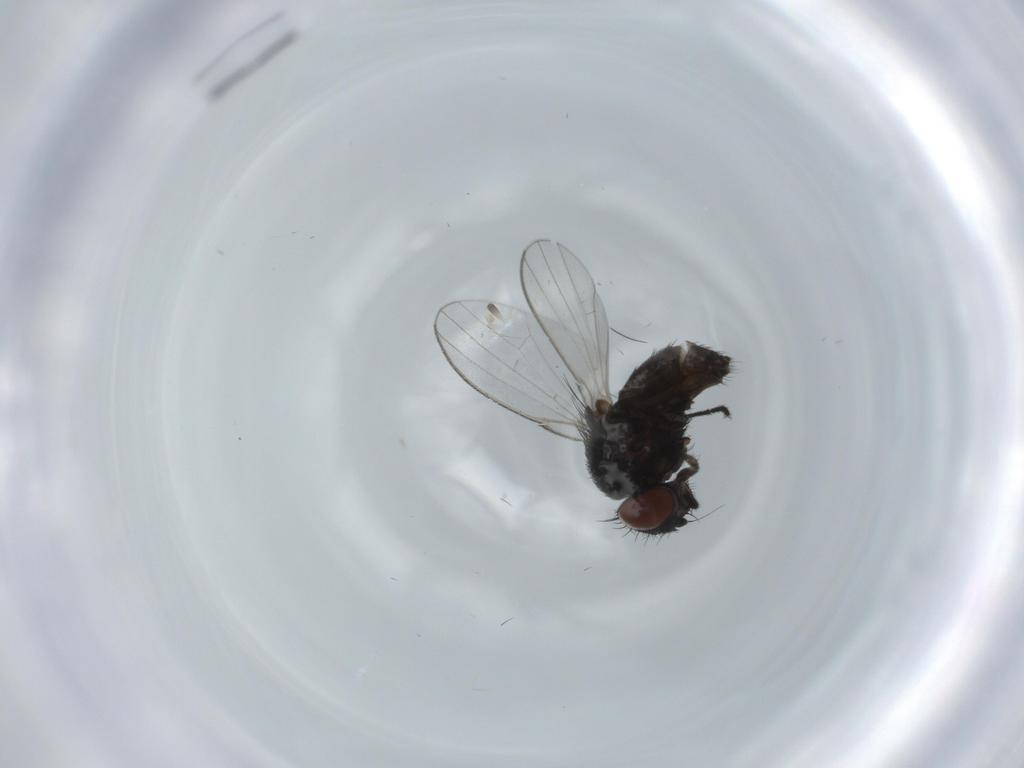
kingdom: Animalia
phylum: Arthropoda
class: Insecta
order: Diptera
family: Milichiidae
